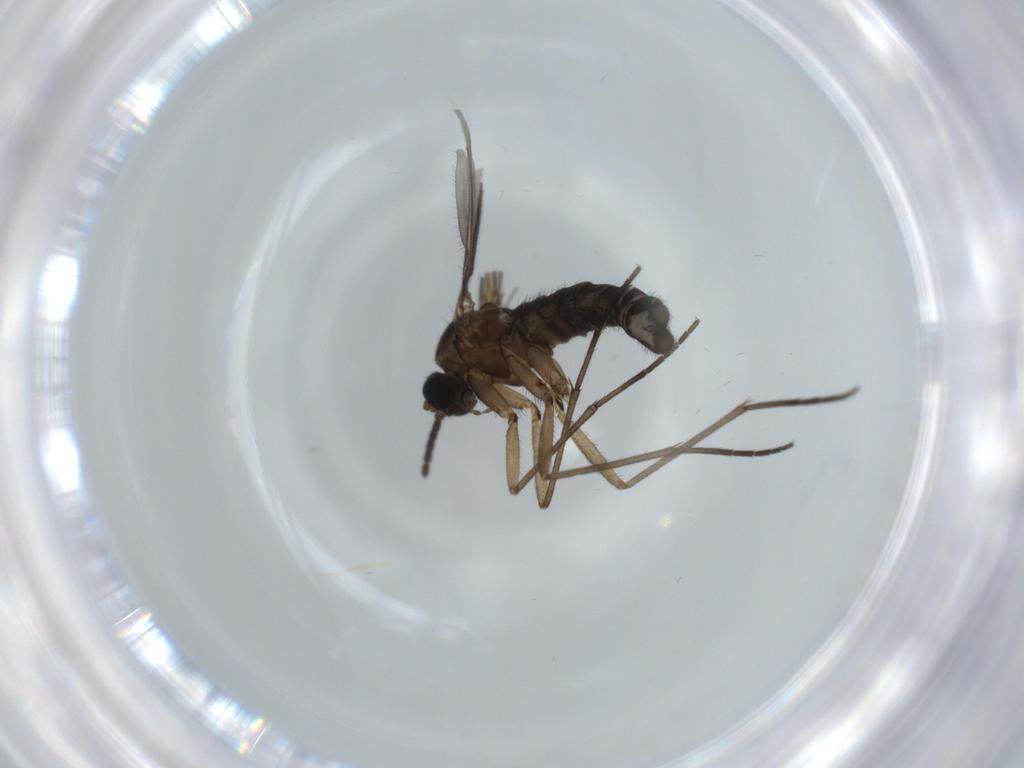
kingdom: Animalia
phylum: Arthropoda
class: Insecta
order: Diptera
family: Sciaridae
